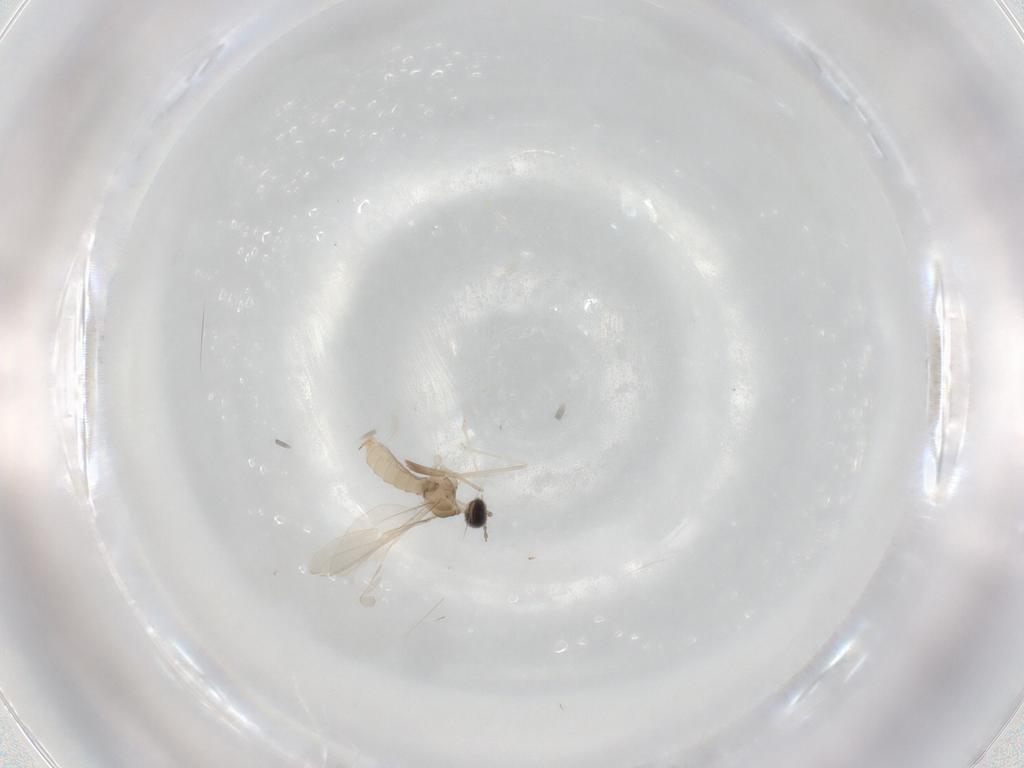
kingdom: Animalia
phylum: Arthropoda
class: Insecta
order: Diptera
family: Cecidomyiidae
